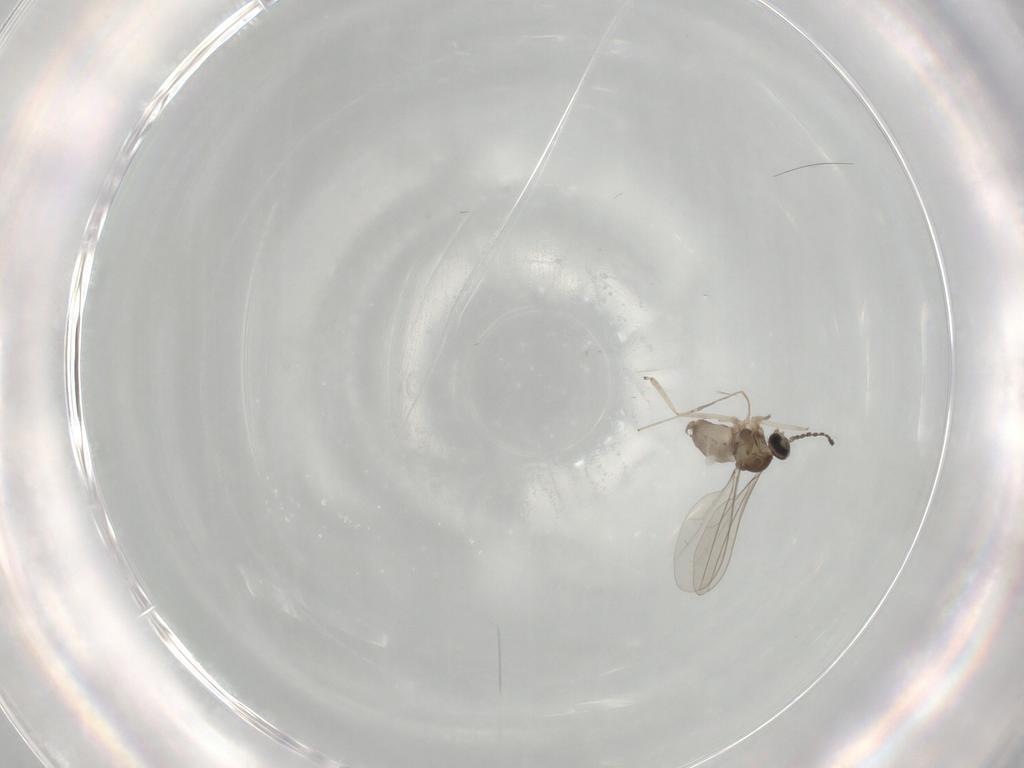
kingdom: Animalia
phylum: Arthropoda
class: Insecta
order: Diptera
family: Cecidomyiidae
